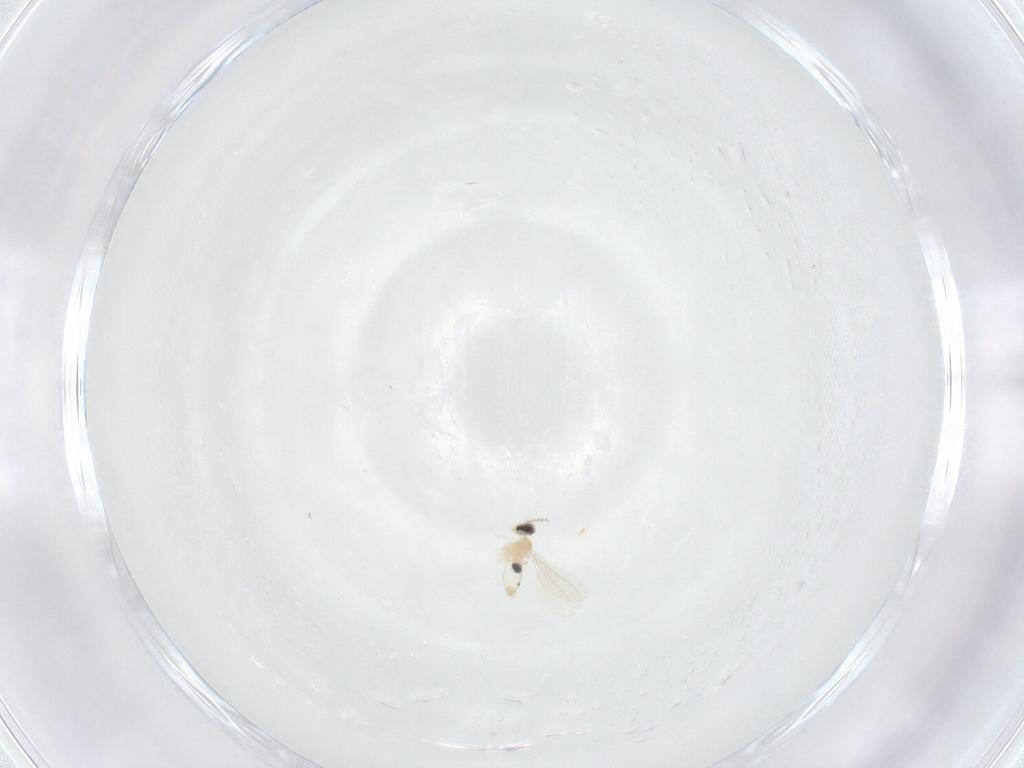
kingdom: Animalia
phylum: Arthropoda
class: Insecta
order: Diptera
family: Cecidomyiidae
